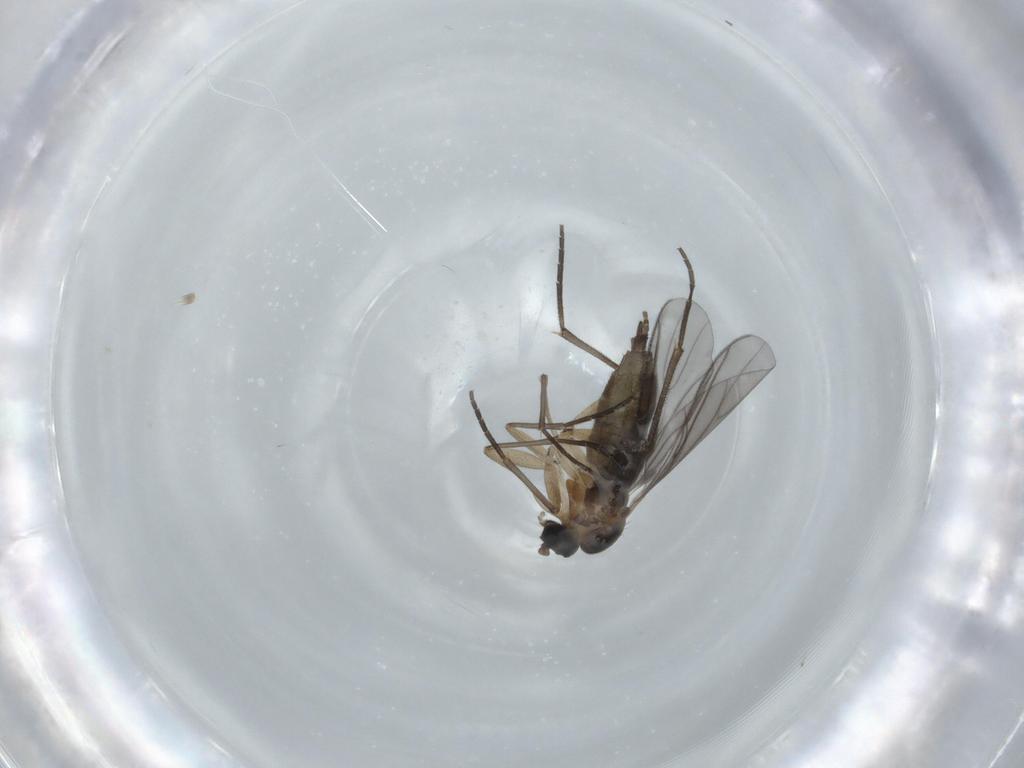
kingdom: Animalia
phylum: Arthropoda
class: Insecta
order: Diptera
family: Sciaridae
